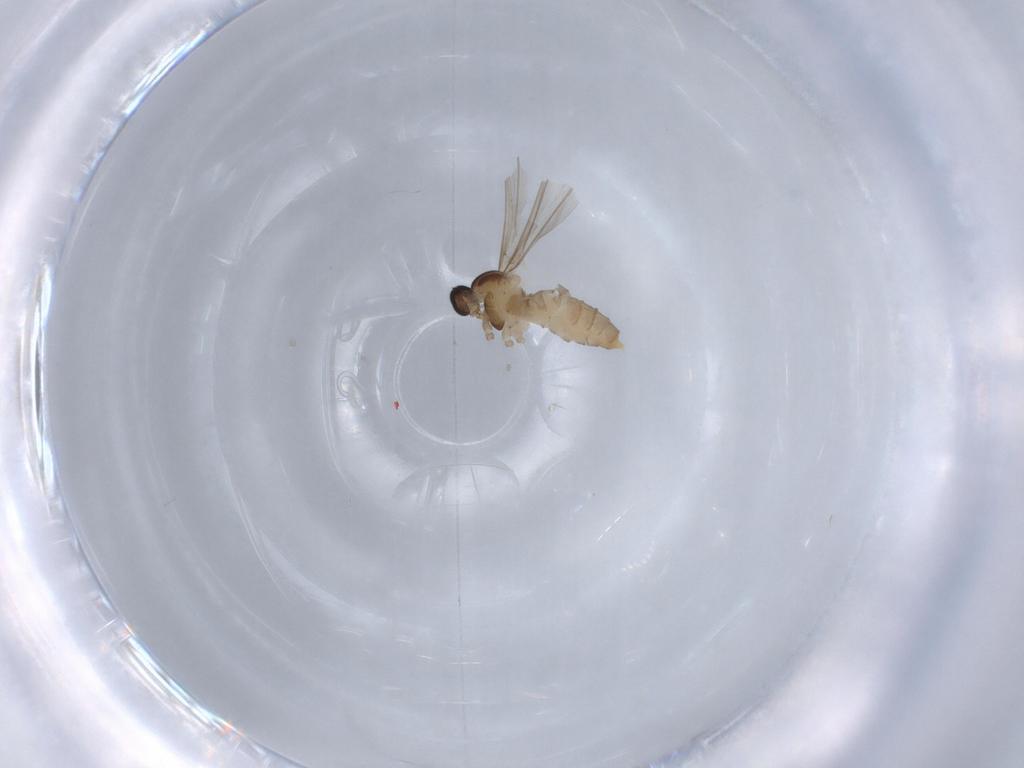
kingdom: Animalia
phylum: Arthropoda
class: Insecta
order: Diptera
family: Cecidomyiidae
